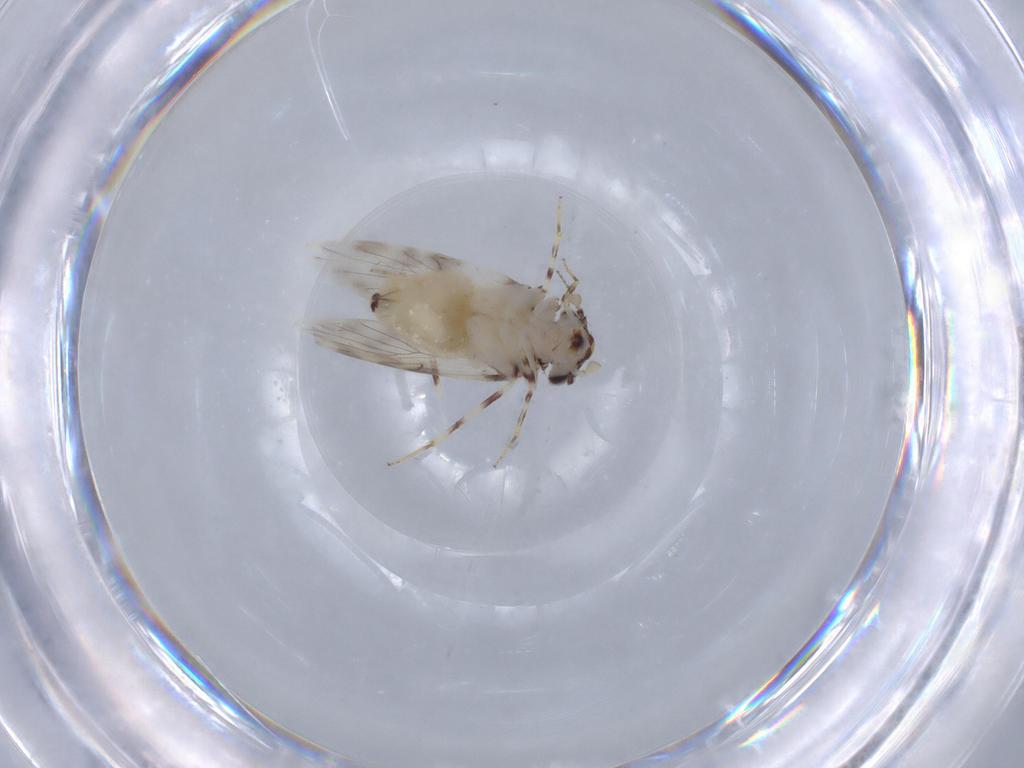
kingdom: Animalia
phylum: Arthropoda
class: Insecta
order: Psocodea
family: Lepidopsocidae
